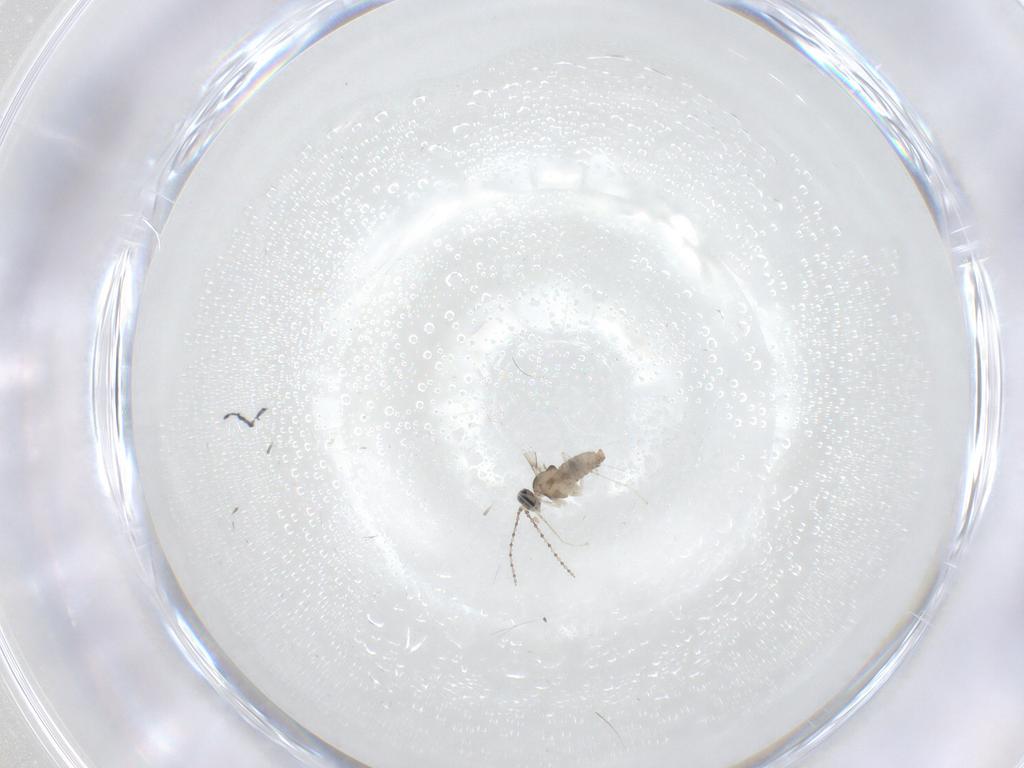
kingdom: Animalia
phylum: Arthropoda
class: Insecta
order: Diptera
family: Cecidomyiidae
